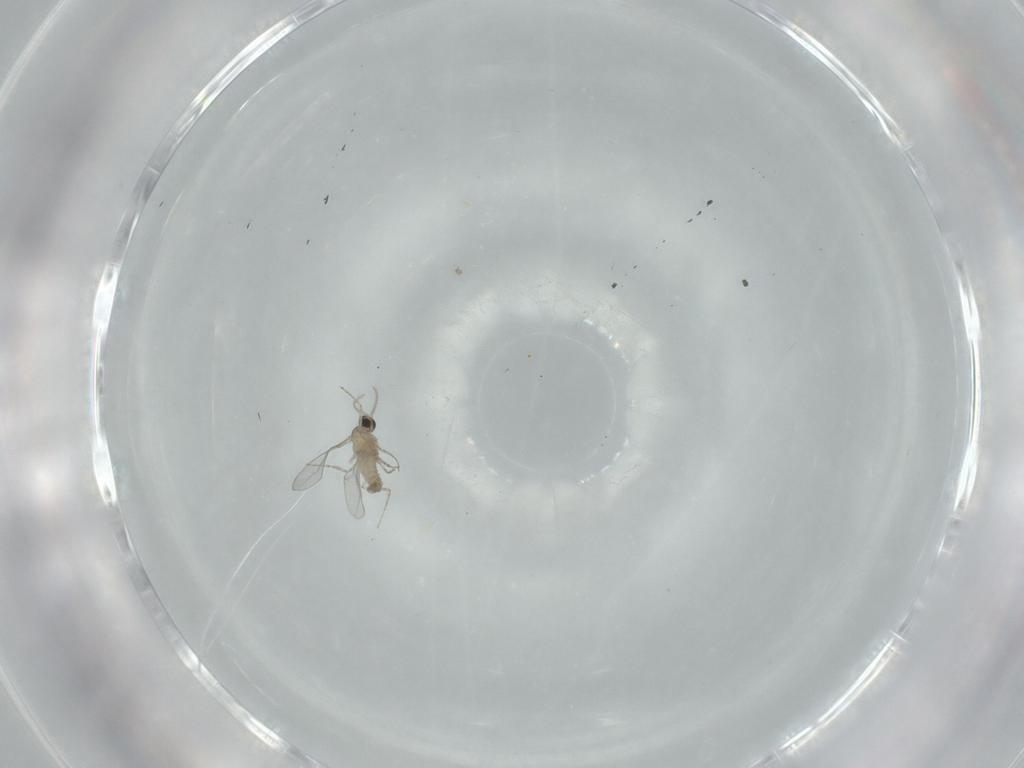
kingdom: Animalia
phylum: Arthropoda
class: Insecta
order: Diptera
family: Sciaridae
